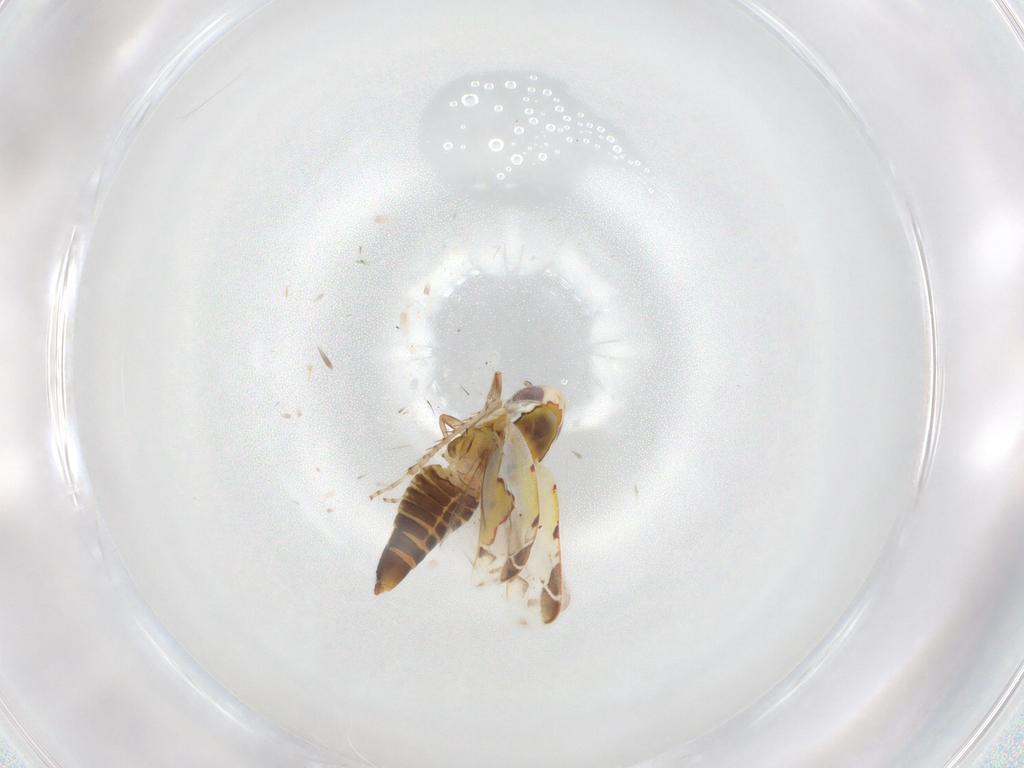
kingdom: Animalia
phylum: Arthropoda
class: Insecta
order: Hemiptera
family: Cicadellidae
